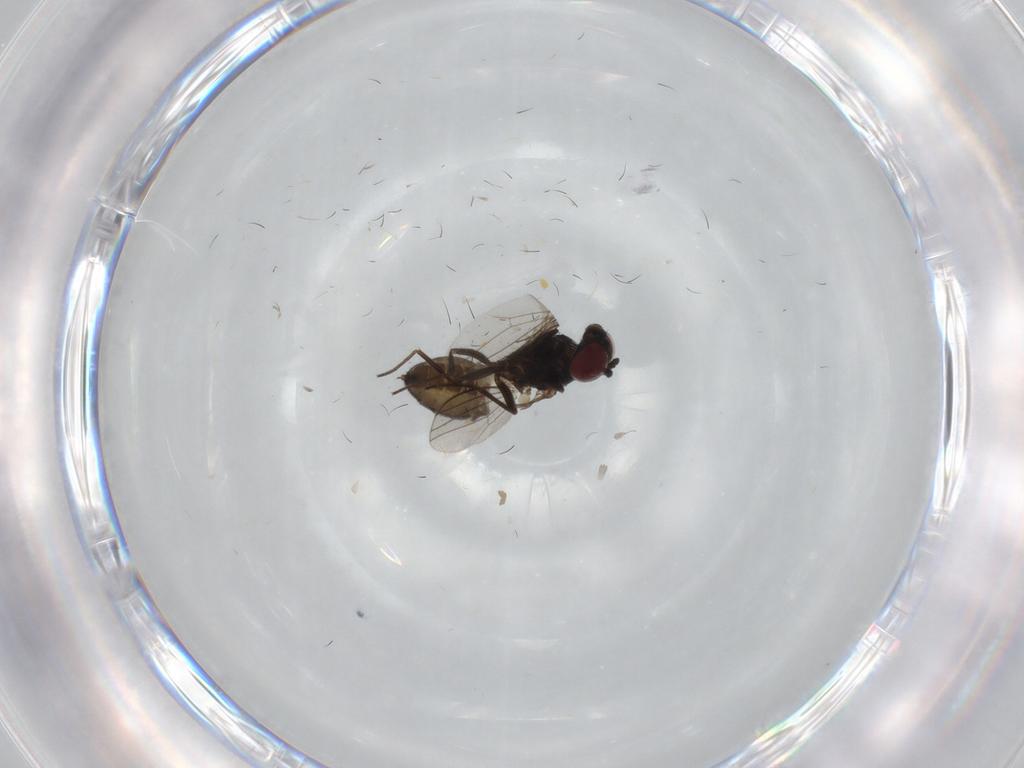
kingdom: Animalia
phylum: Arthropoda
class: Insecta
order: Diptera
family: Dolichopodidae
